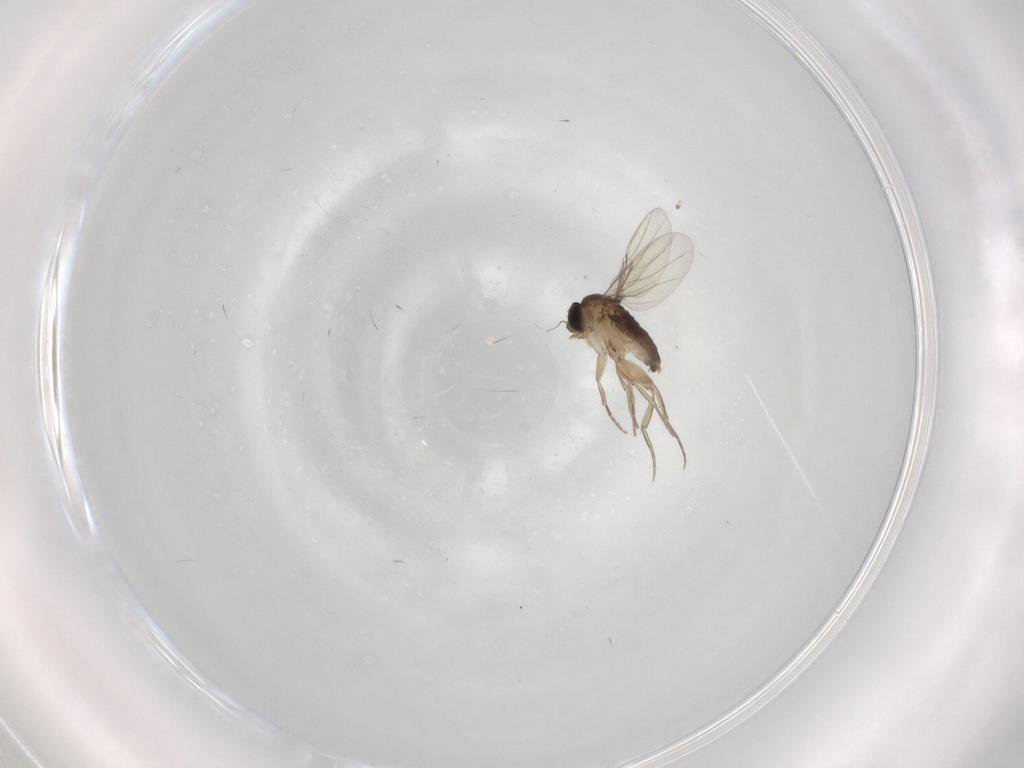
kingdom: Animalia
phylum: Arthropoda
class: Insecta
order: Diptera
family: Phoridae
